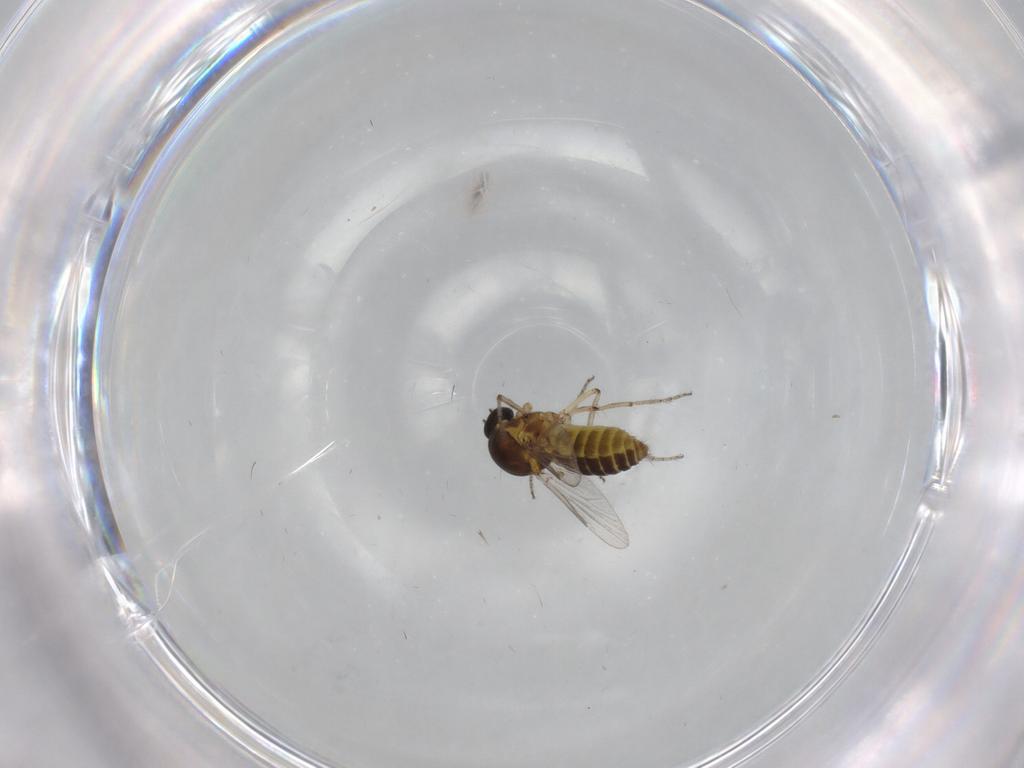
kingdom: Animalia
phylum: Arthropoda
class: Insecta
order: Diptera
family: Ceratopogonidae
